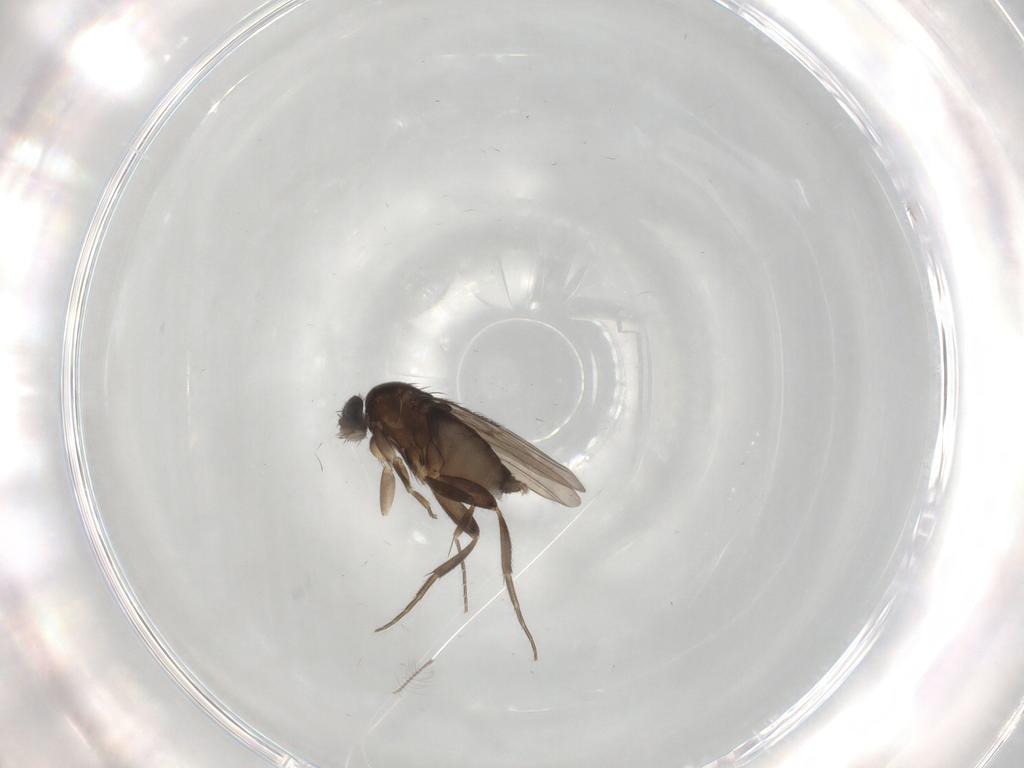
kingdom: Animalia
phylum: Arthropoda
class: Insecta
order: Diptera
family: Phoridae
